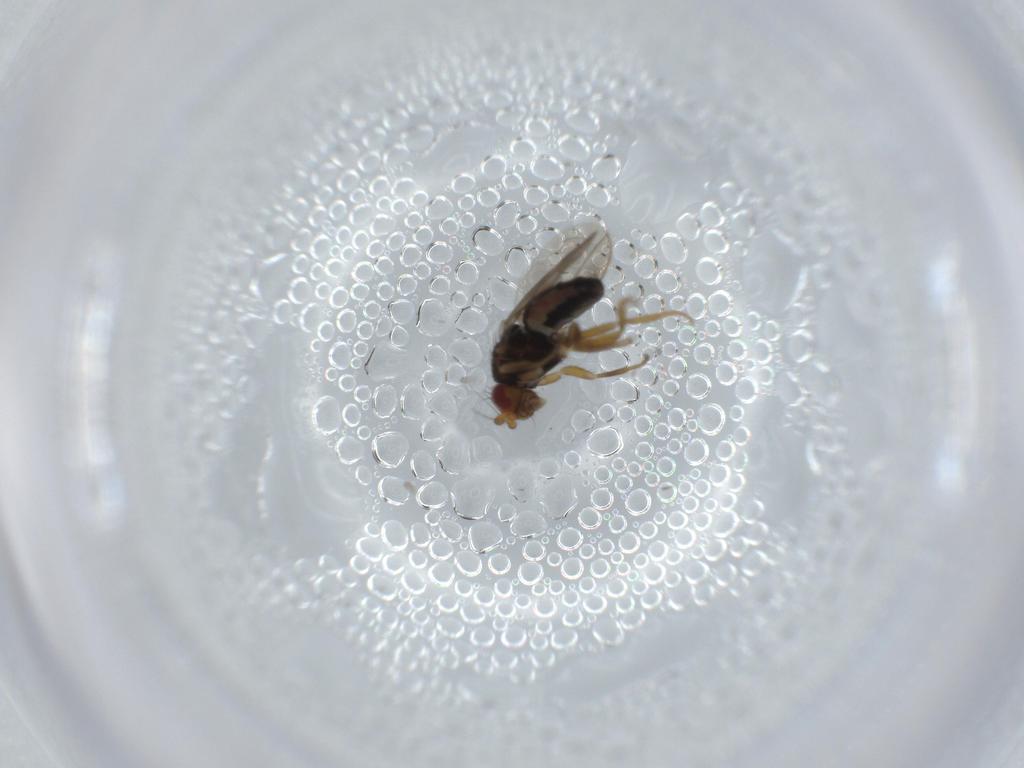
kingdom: Animalia
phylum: Arthropoda
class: Insecta
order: Diptera
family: Sphaeroceridae
